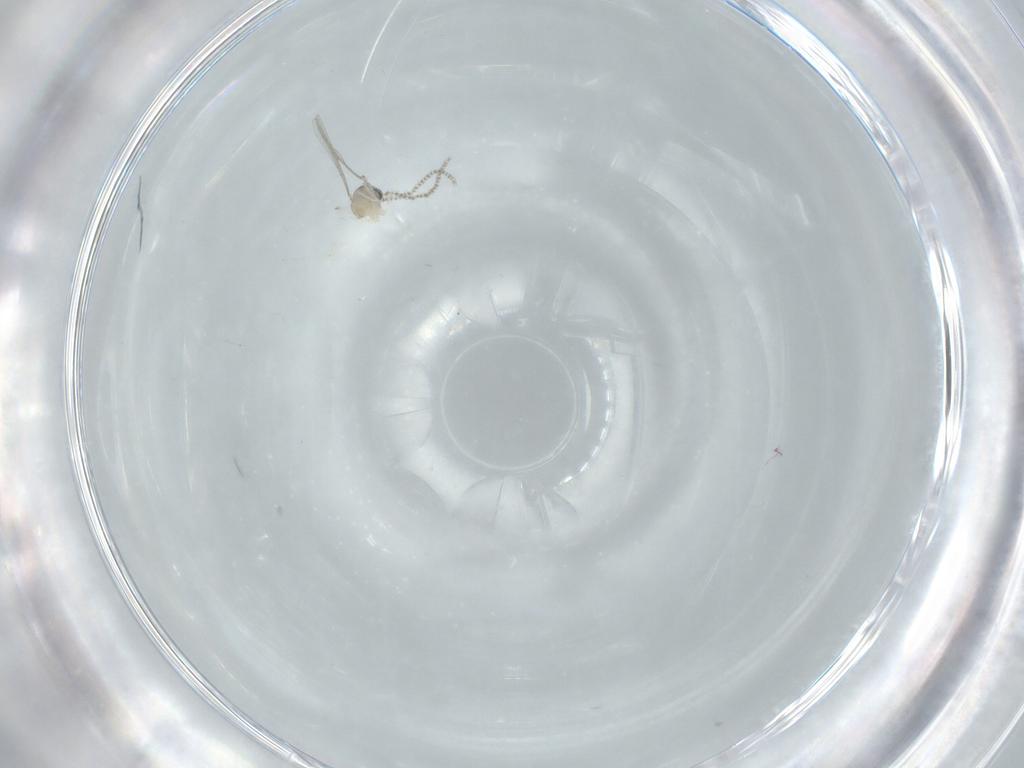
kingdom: Animalia
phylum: Arthropoda
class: Insecta
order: Diptera
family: Cecidomyiidae
